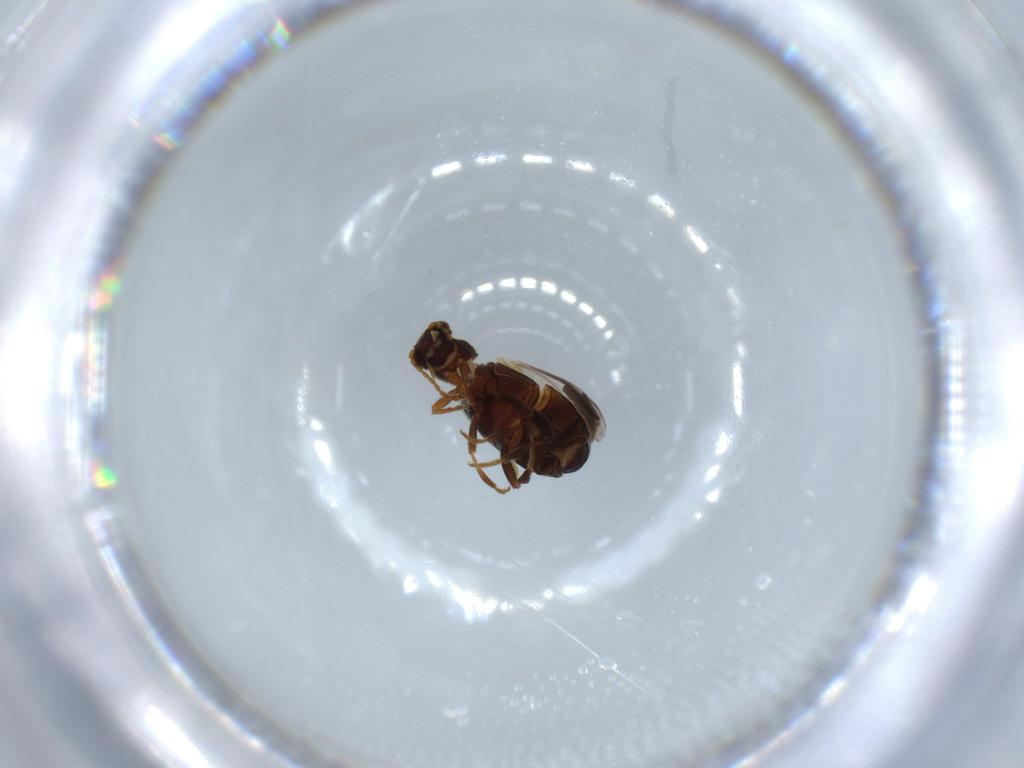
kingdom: Animalia
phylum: Arthropoda
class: Insecta
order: Coleoptera
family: Aderidae
